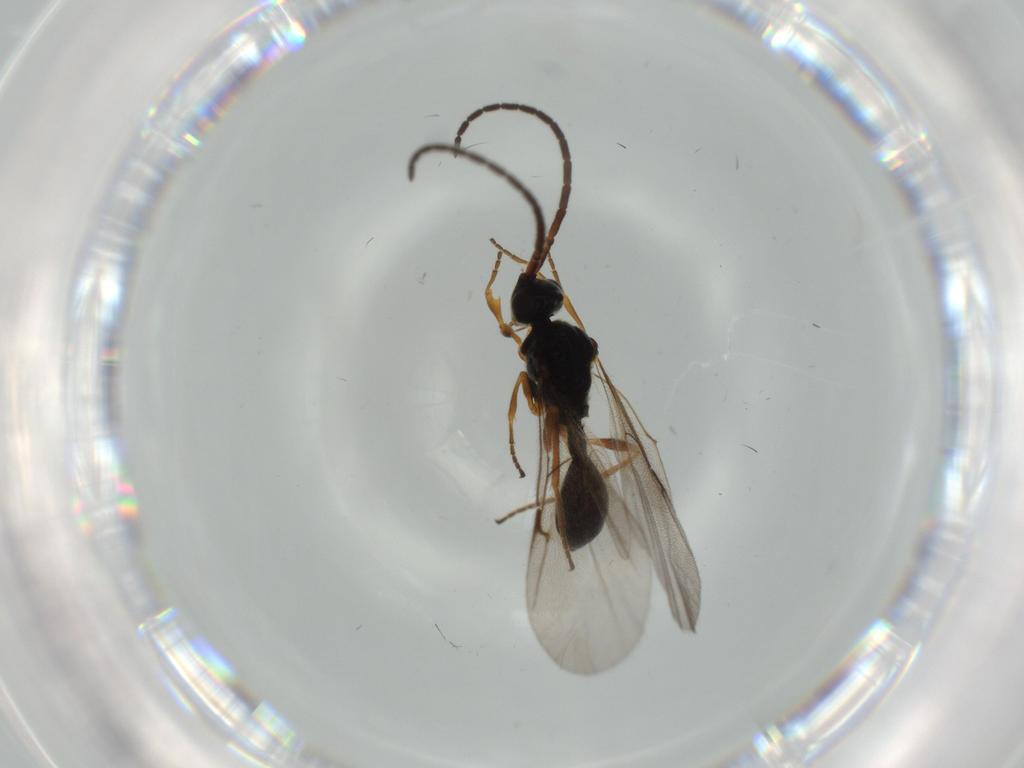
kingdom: Animalia
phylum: Arthropoda
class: Insecta
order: Hymenoptera
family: Diapriidae
